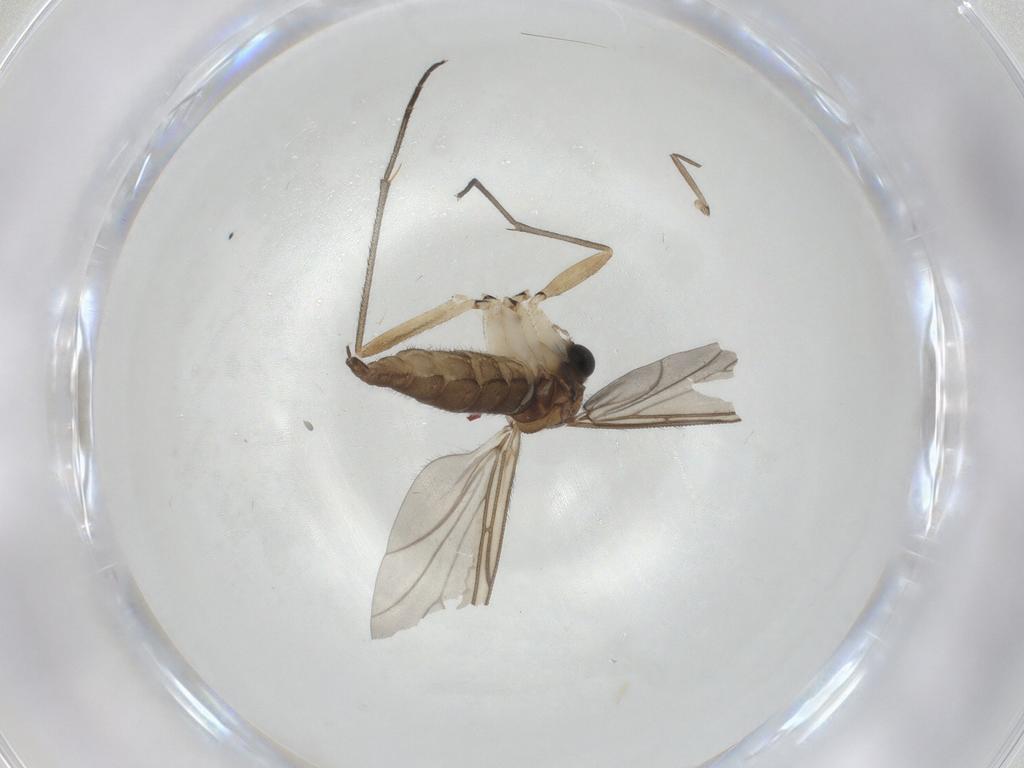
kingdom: Animalia
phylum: Arthropoda
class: Insecta
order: Diptera
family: Sciaridae
